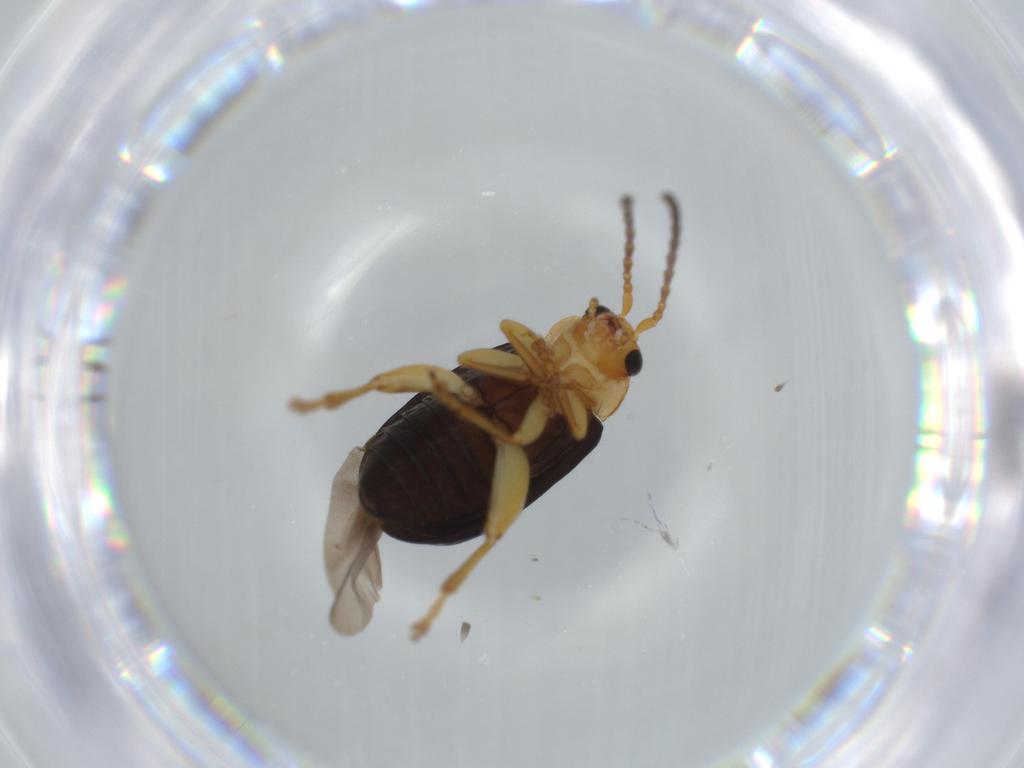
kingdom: Animalia
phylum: Arthropoda
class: Insecta
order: Coleoptera
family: Chrysomelidae
